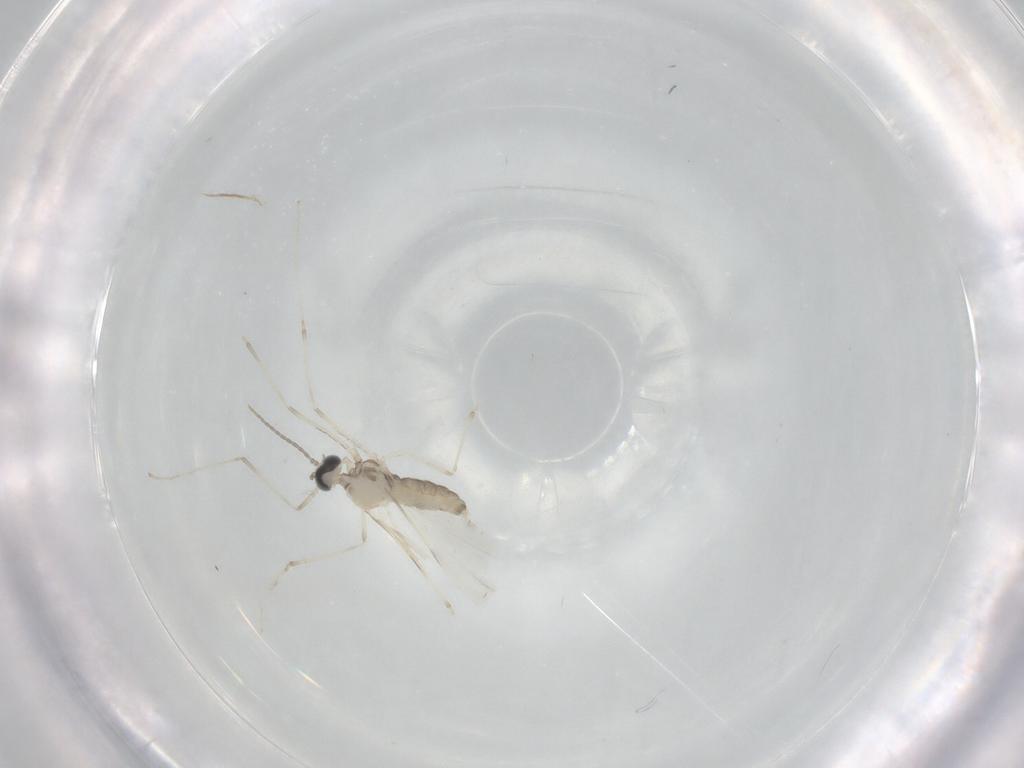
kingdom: Animalia
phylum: Arthropoda
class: Insecta
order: Diptera
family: Cecidomyiidae
